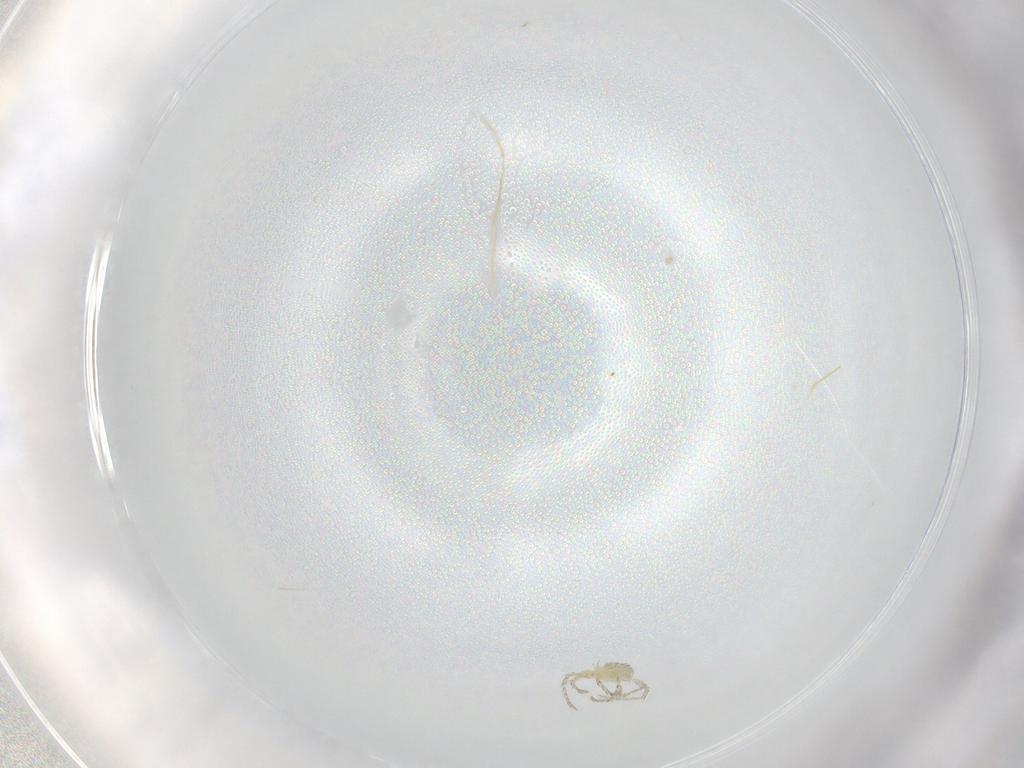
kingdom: Animalia
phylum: Arthropoda
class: Arachnida
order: Trombidiformes
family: Erythraeidae
